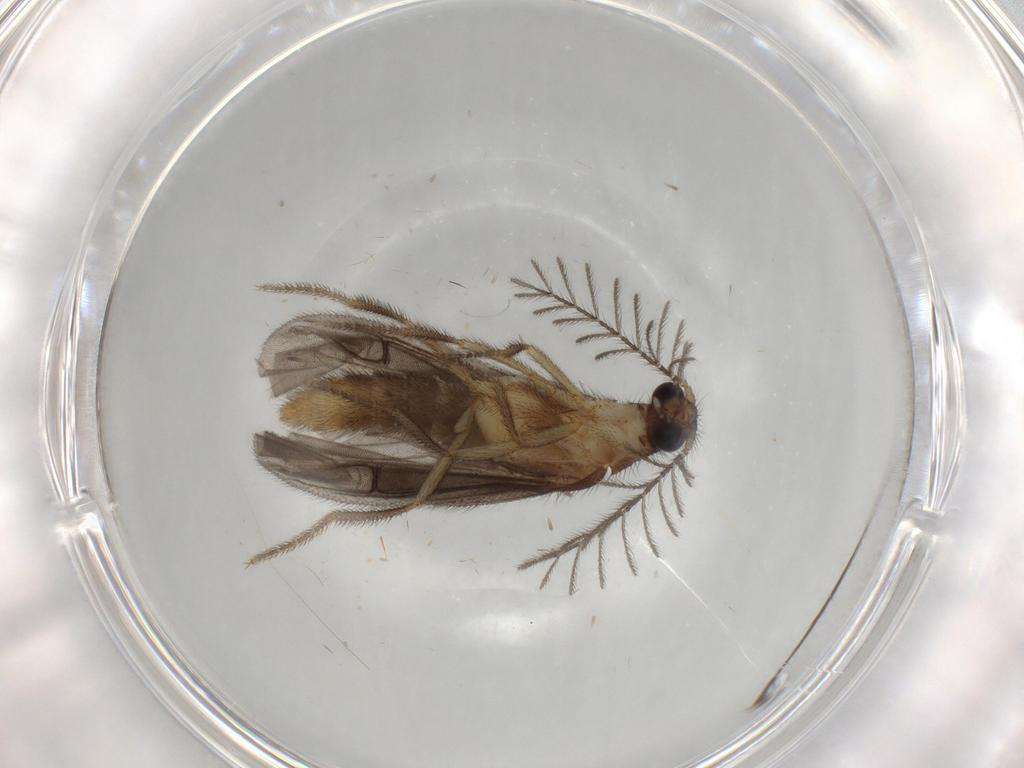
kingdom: Animalia
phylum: Arthropoda
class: Insecta
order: Coleoptera
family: Phengodidae
